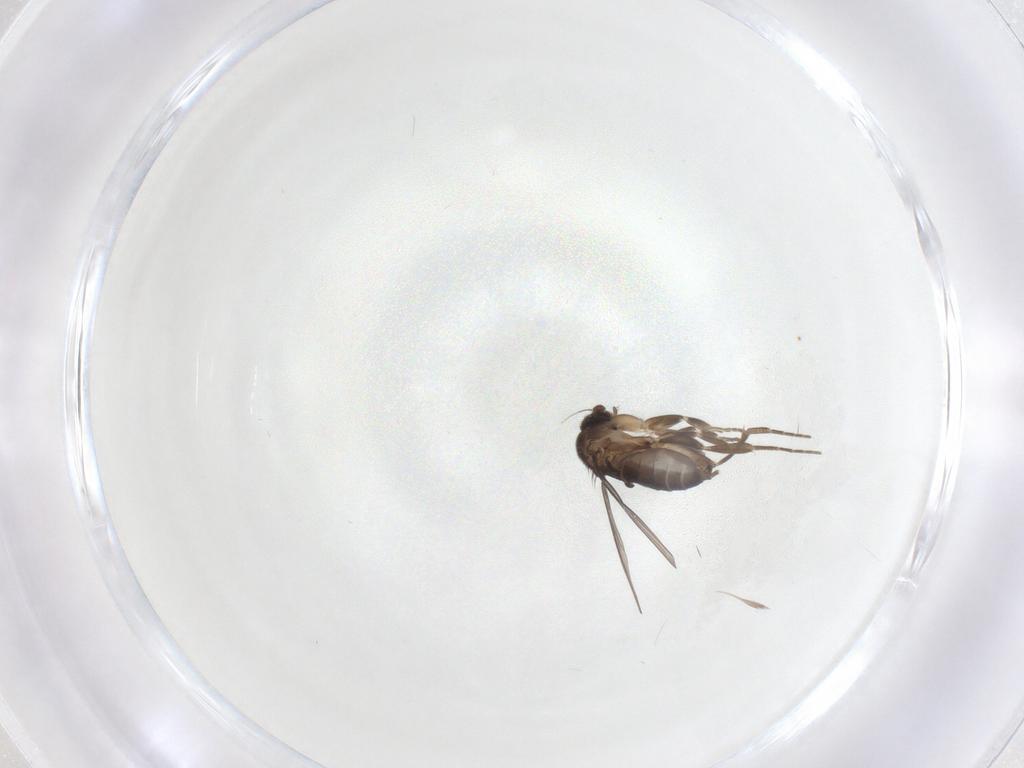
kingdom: Animalia
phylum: Arthropoda
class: Insecta
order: Diptera
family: Phoridae
